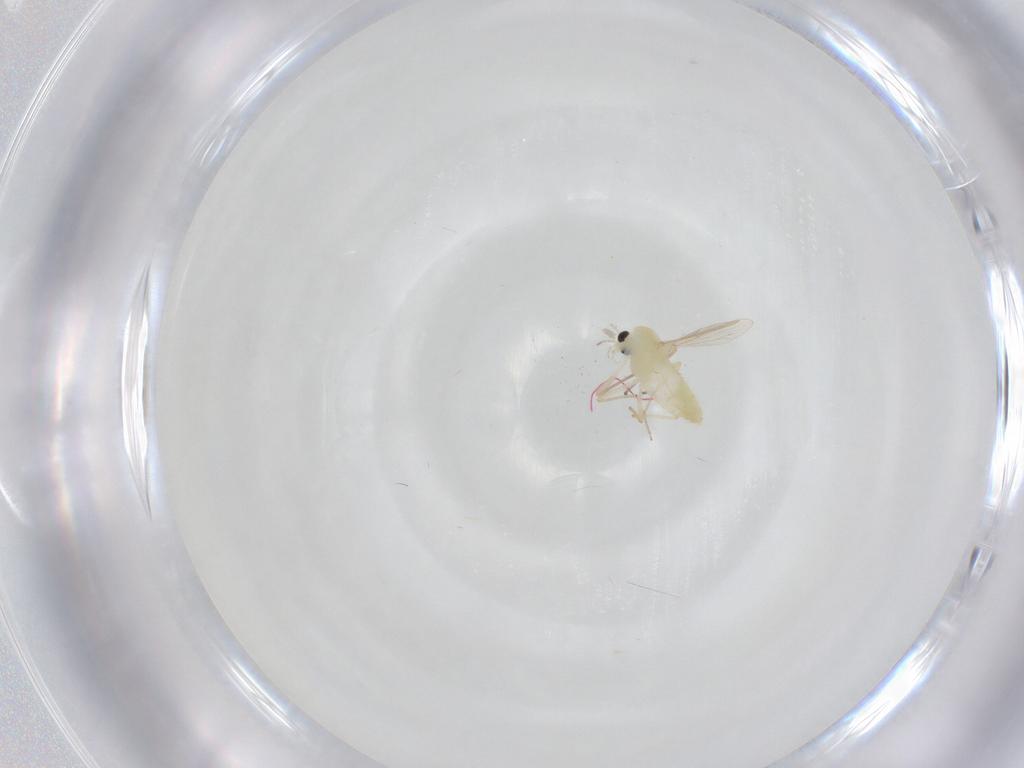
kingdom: Animalia
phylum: Arthropoda
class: Insecta
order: Diptera
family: Chironomidae
